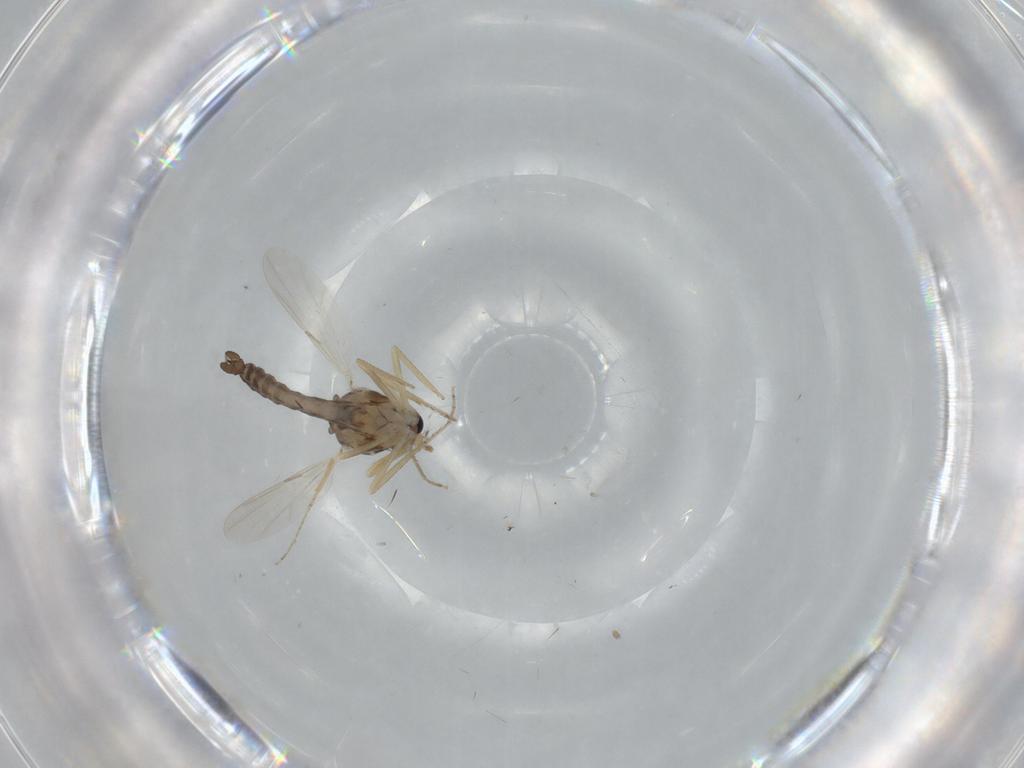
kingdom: Animalia
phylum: Arthropoda
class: Insecta
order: Diptera
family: Ceratopogonidae
